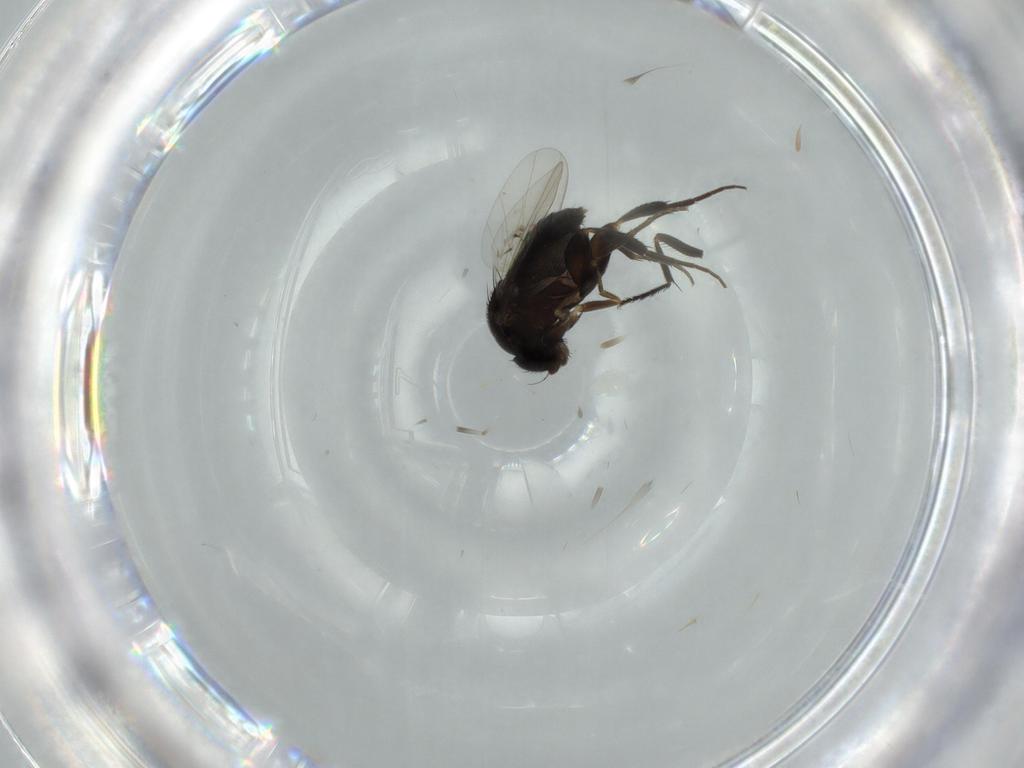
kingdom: Animalia
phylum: Arthropoda
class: Insecta
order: Diptera
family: Phoridae
